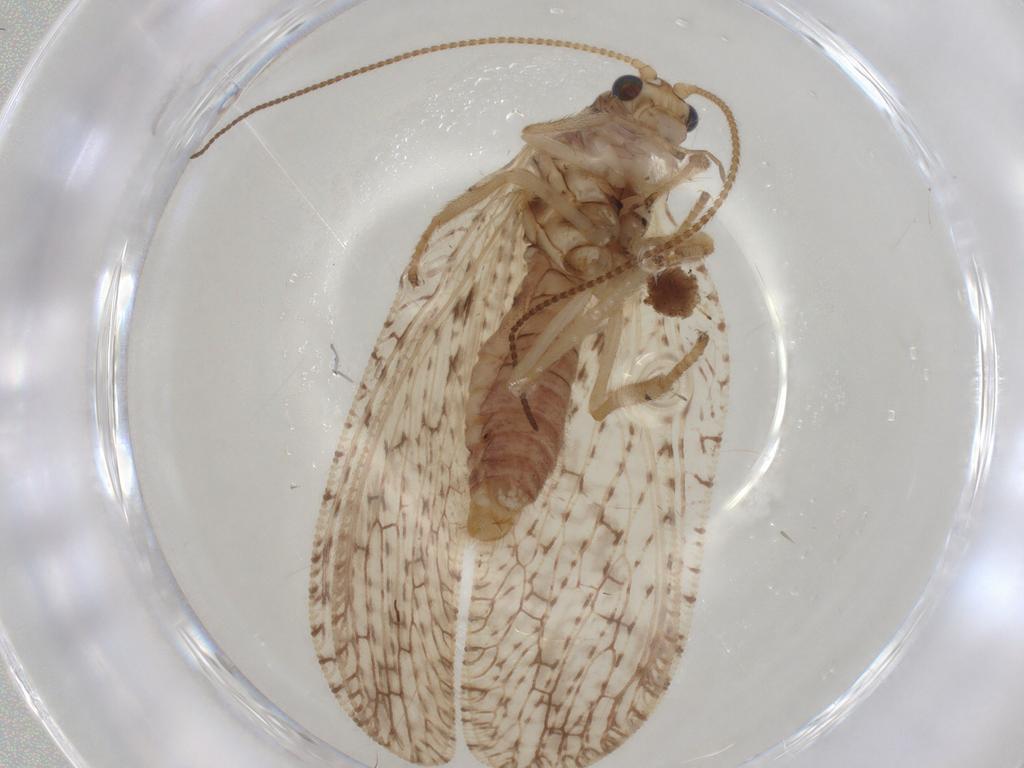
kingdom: Animalia
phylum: Arthropoda
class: Insecta
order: Neuroptera
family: Hemerobiidae
